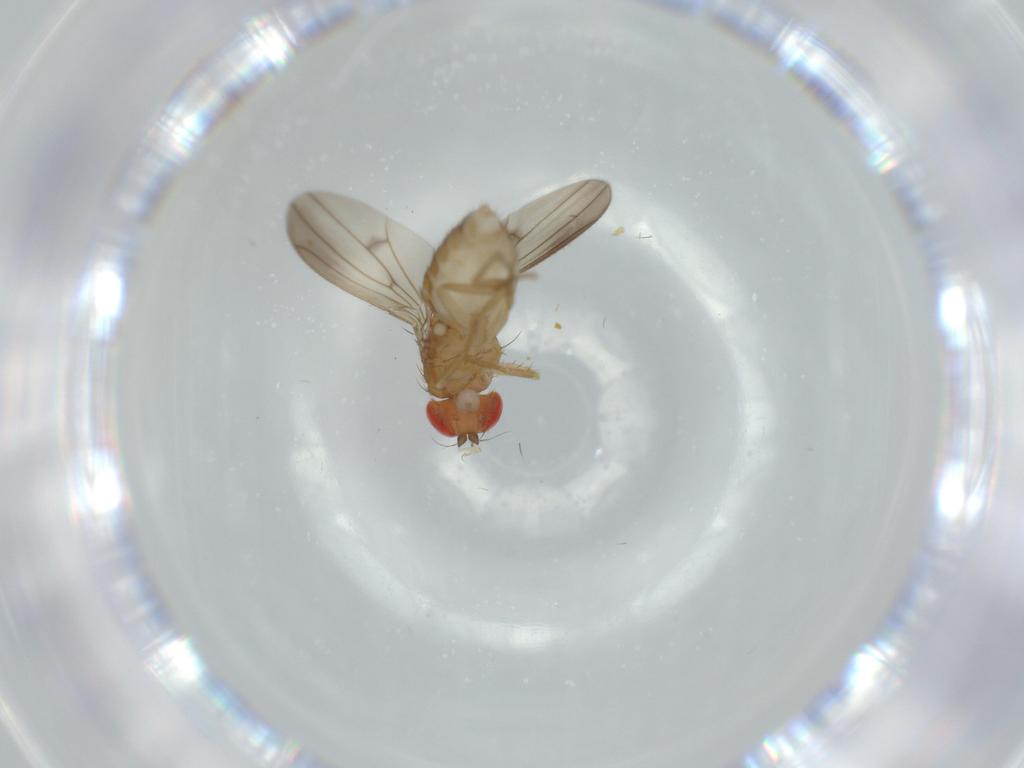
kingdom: Animalia
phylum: Arthropoda
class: Insecta
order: Diptera
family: Drosophilidae
